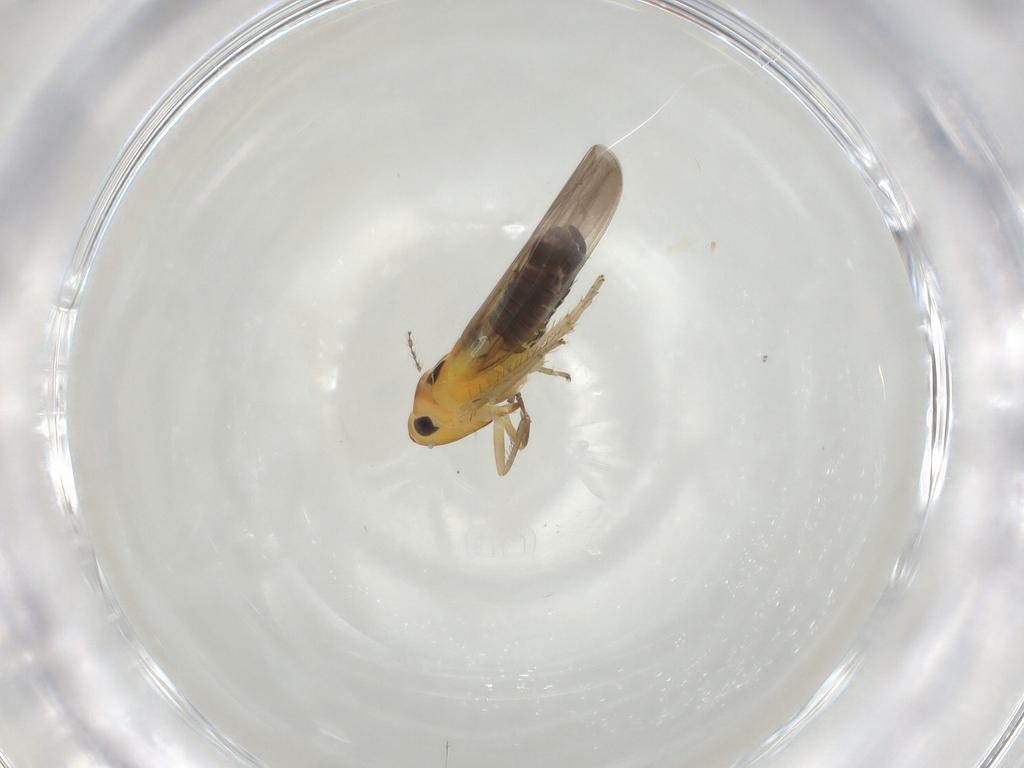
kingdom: Animalia
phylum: Arthropoda
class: Insecta
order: Hemiptera
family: Cicadellidae
